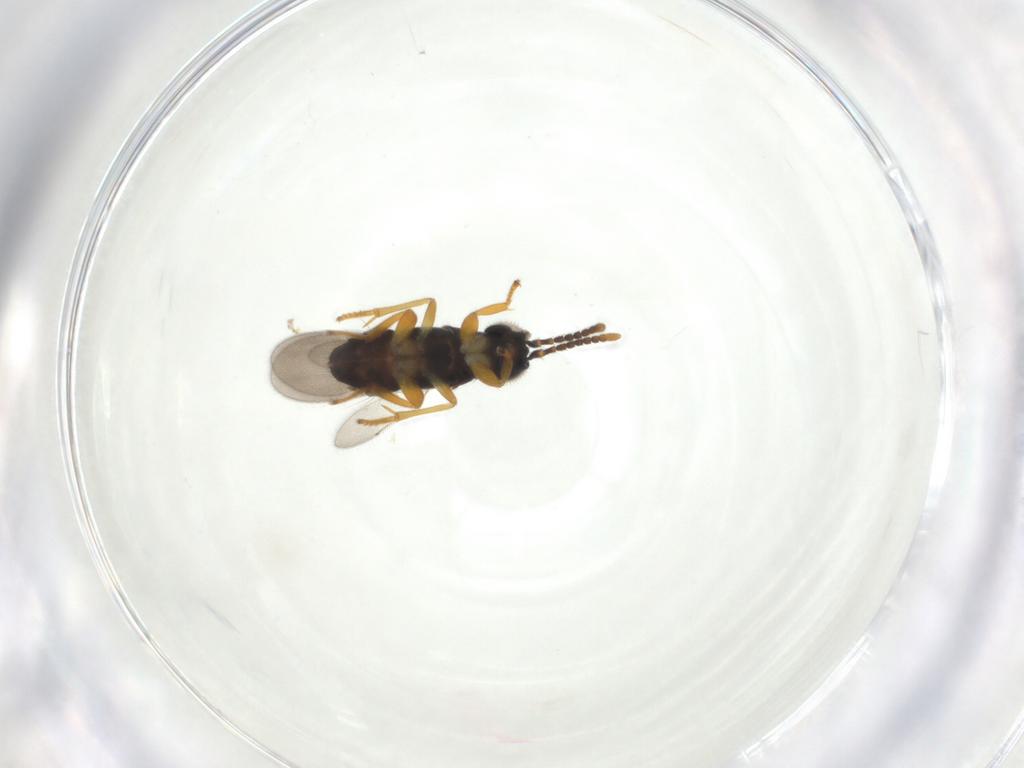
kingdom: Animalia
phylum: Arthropoda
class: Insecta
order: Hymenoptera
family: Encyrtidae
